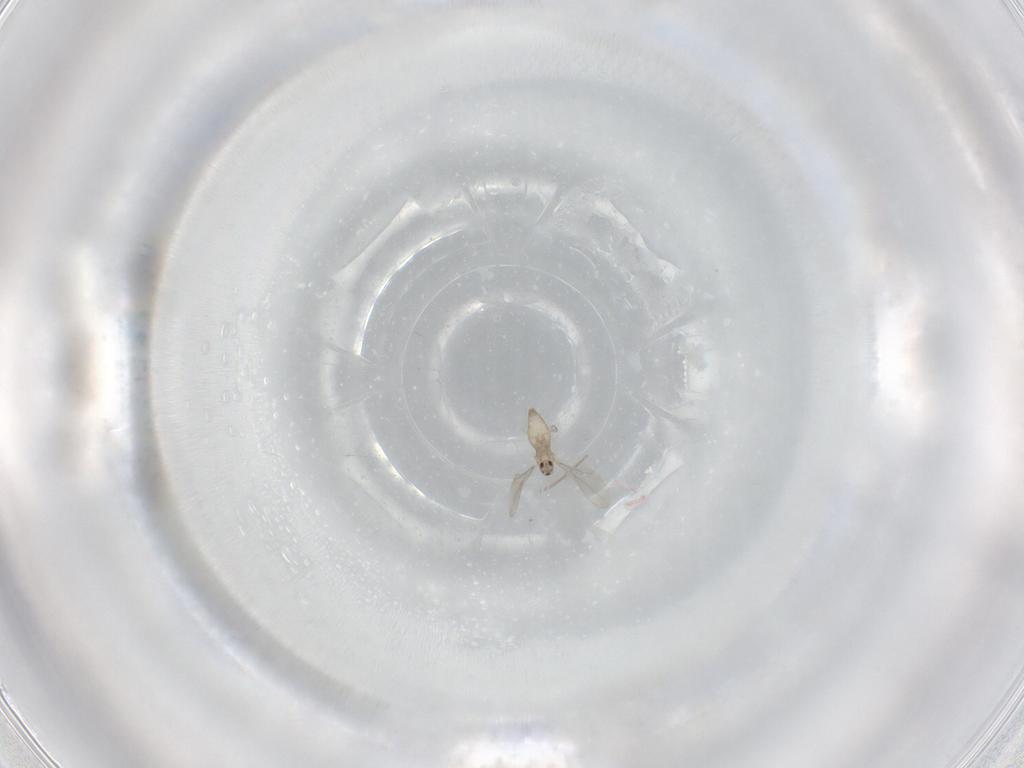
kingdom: Animalia
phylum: Arthropoda
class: Insecta
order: Diptera
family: Cecidomyiidae
